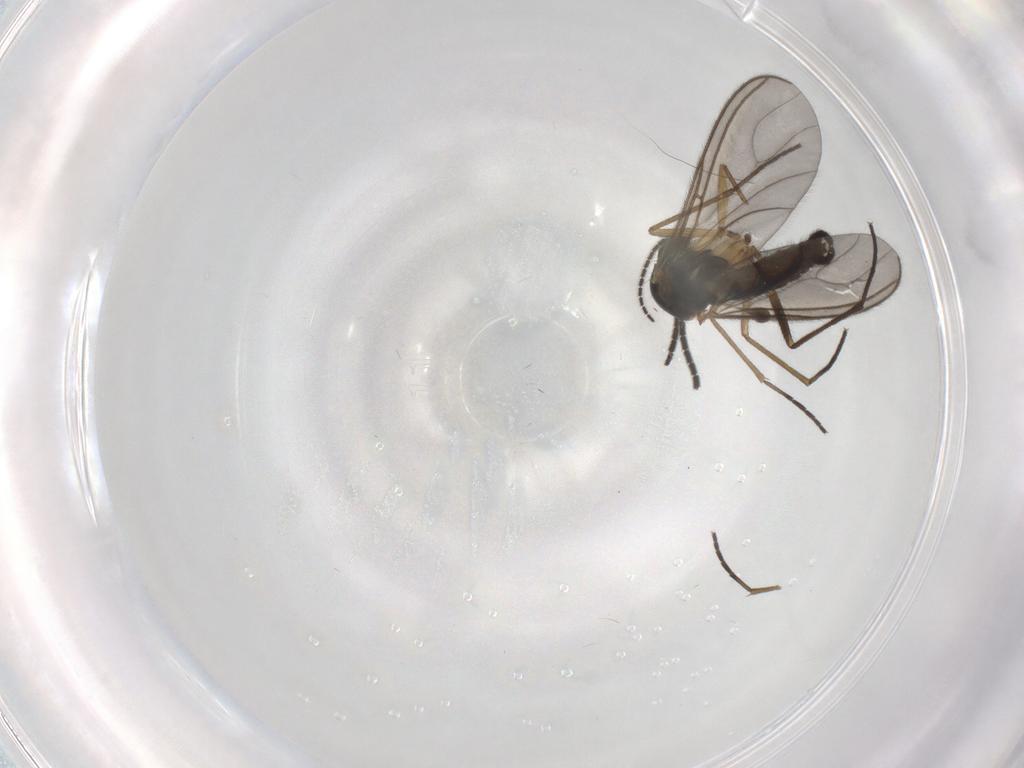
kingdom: Animalia
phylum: Arthropoda
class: Insecta
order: Diptera
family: Sciaridae
